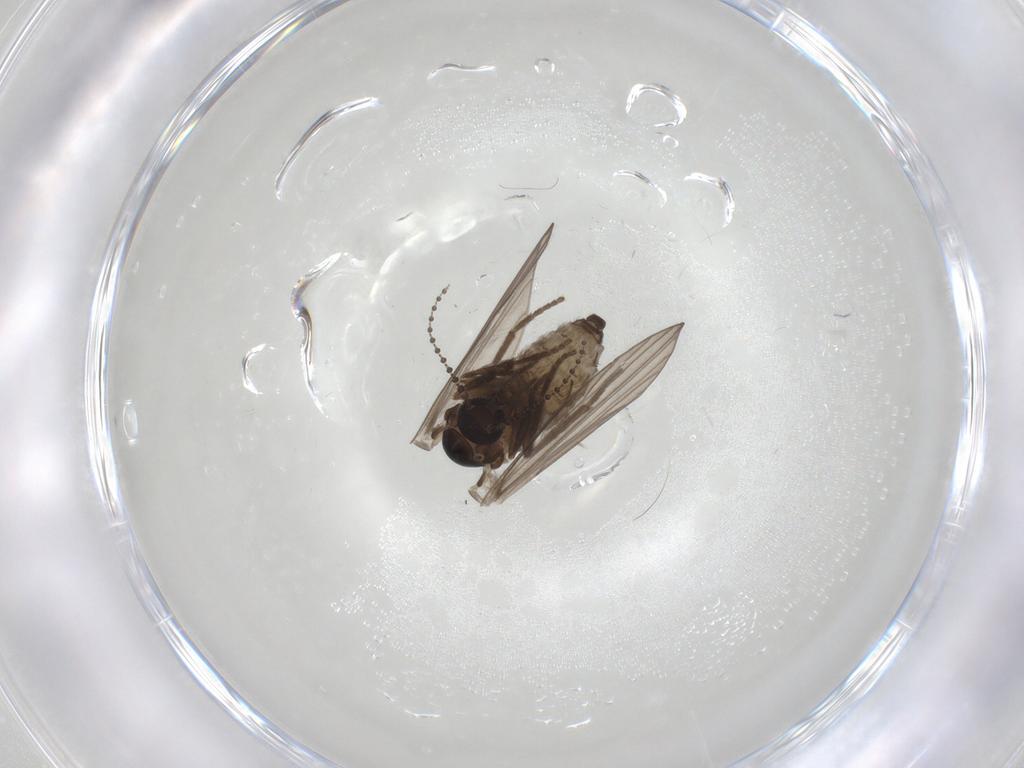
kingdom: Animalia
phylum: Arthropoda
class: Insecta
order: Diptera
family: Psychodidae
